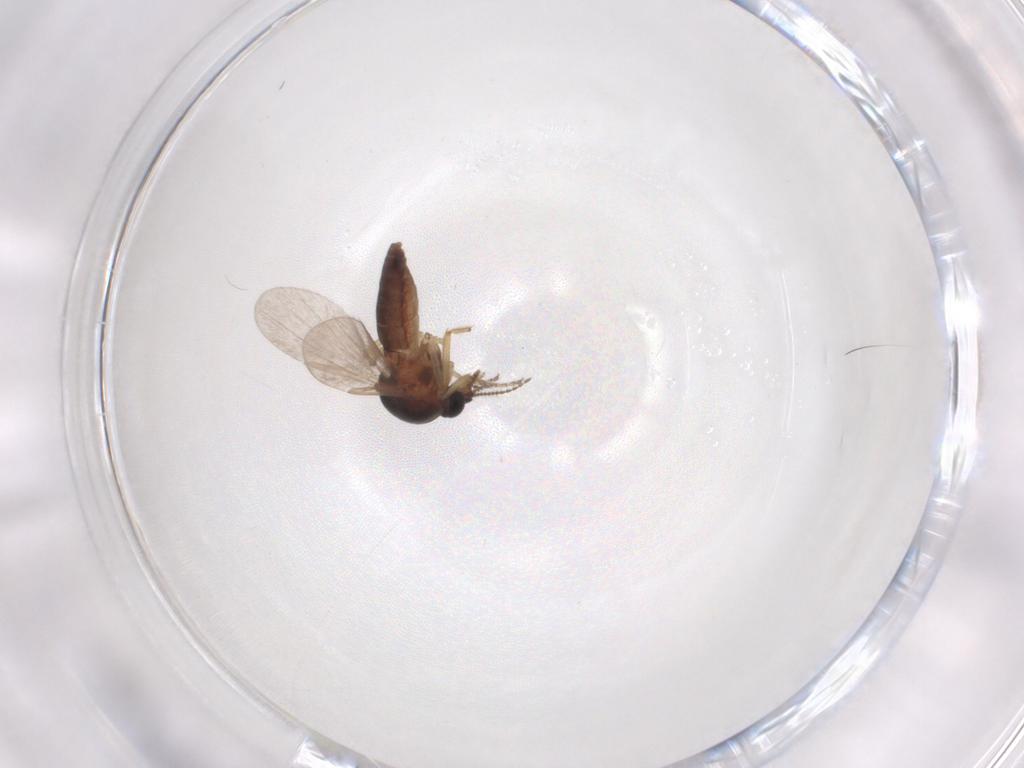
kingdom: Animalia
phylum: Arthropoda
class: Insecta
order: Diptera
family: Ceratopogonidae
